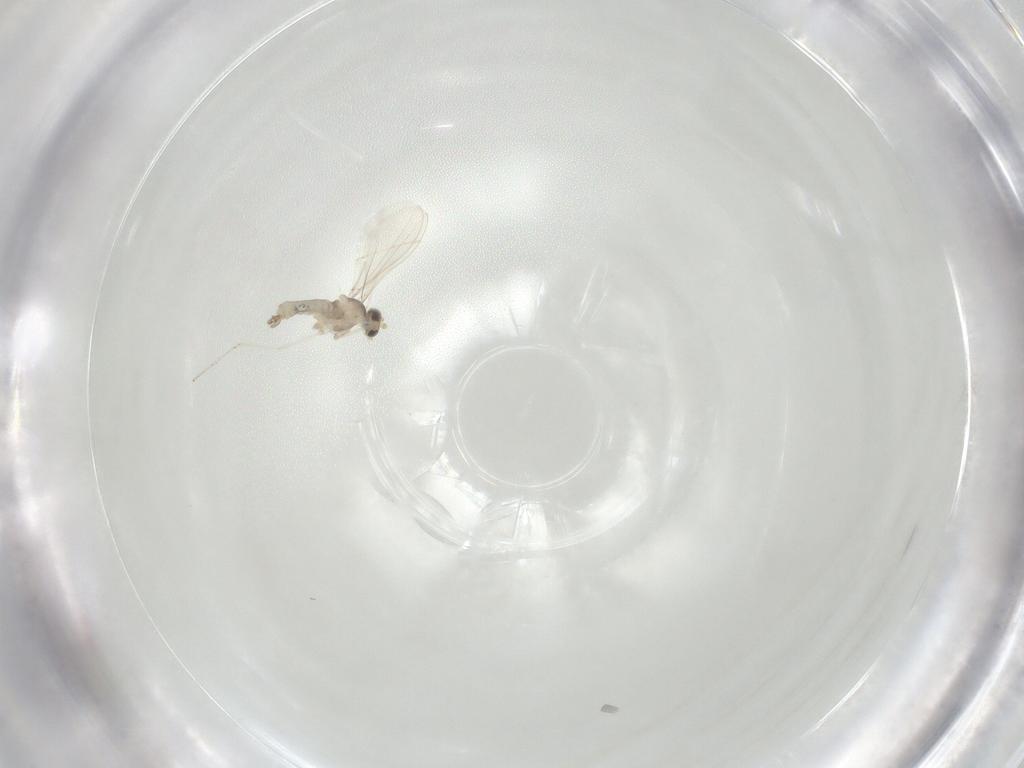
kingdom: Animalia
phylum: Arthropoda
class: Insecta
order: Diptera
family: Cecidomyiidae
